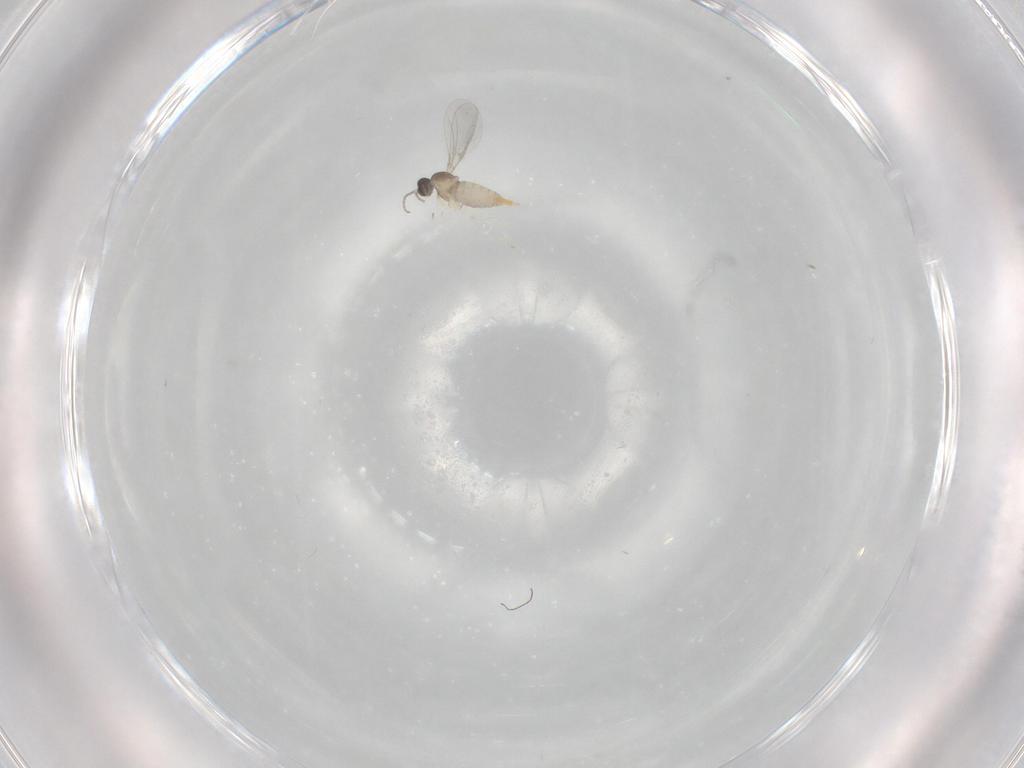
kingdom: Animalia
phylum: Arthropoda
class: Insecta
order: Diptera
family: Cecidomyiidae
